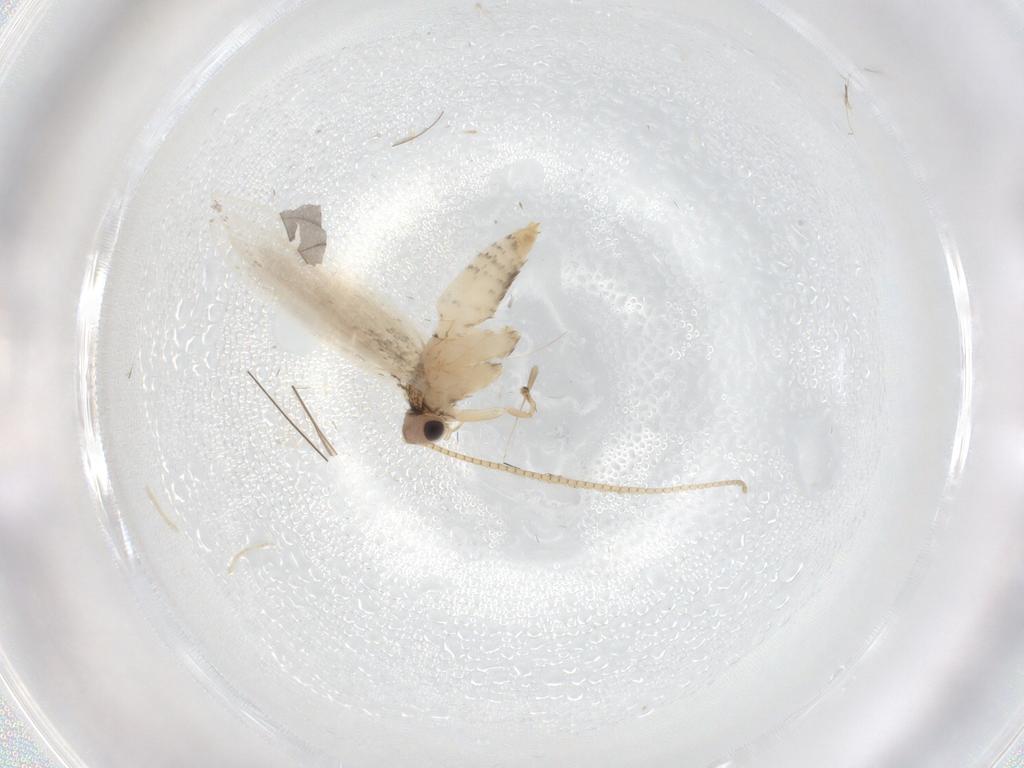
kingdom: Animalia
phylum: Arthropoda
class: Insecta
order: Lepidoptera
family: Tineidae
